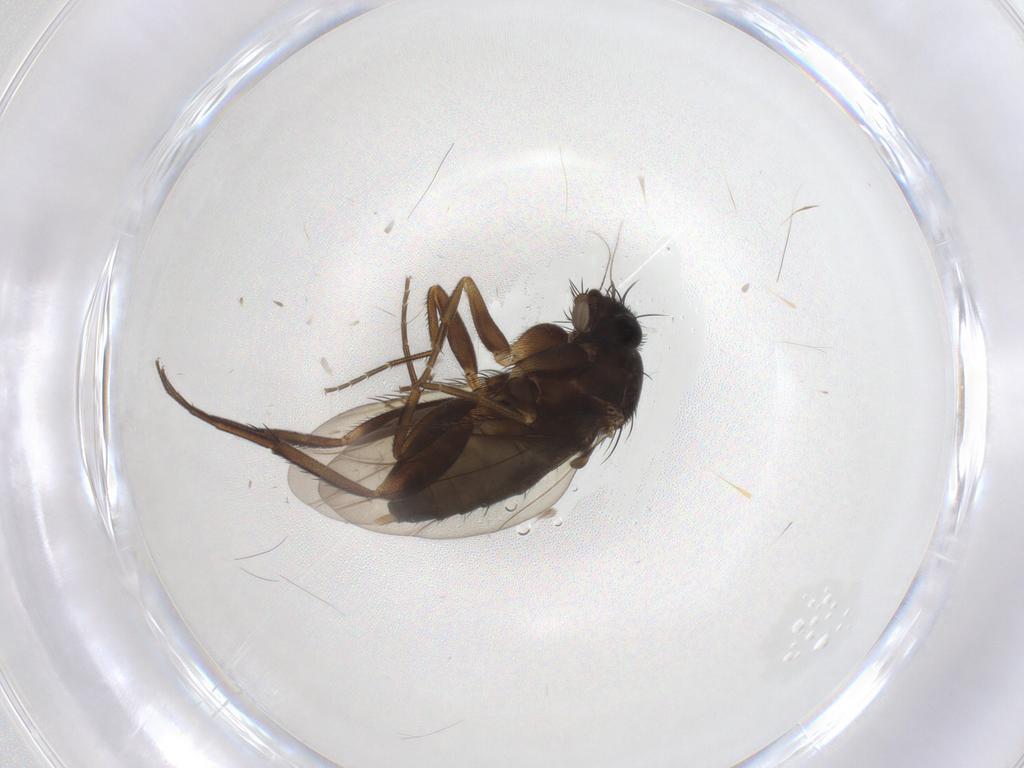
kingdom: Animalia
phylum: Arthropoda
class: Insecta
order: Diptera
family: Phoridae
